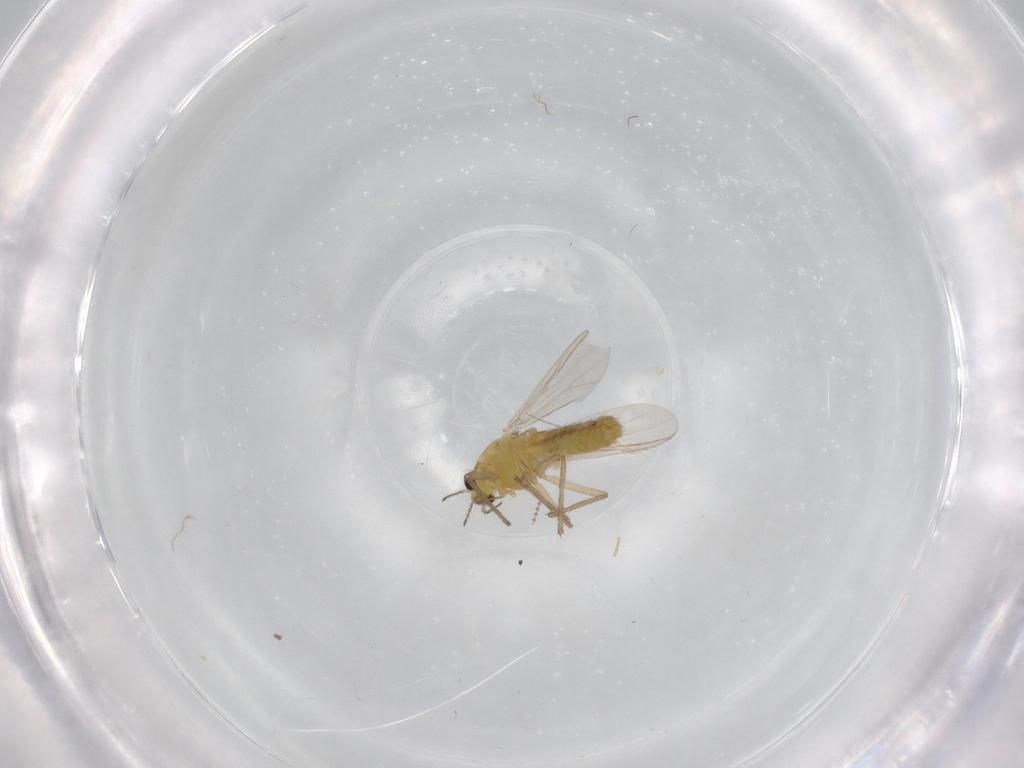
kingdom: Animalia
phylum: Arthropoda
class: Insecta
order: Diptera
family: Chironomidae
